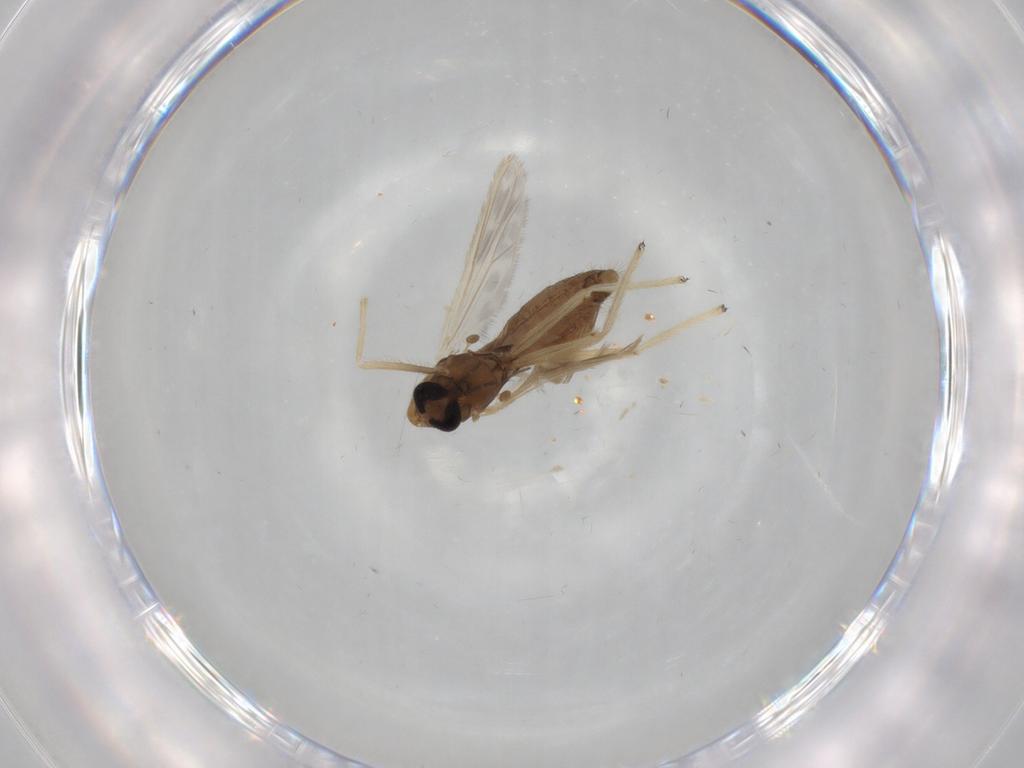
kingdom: Animalia
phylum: Arthropoda
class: Insecta
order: Diptera
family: Chironomidae
